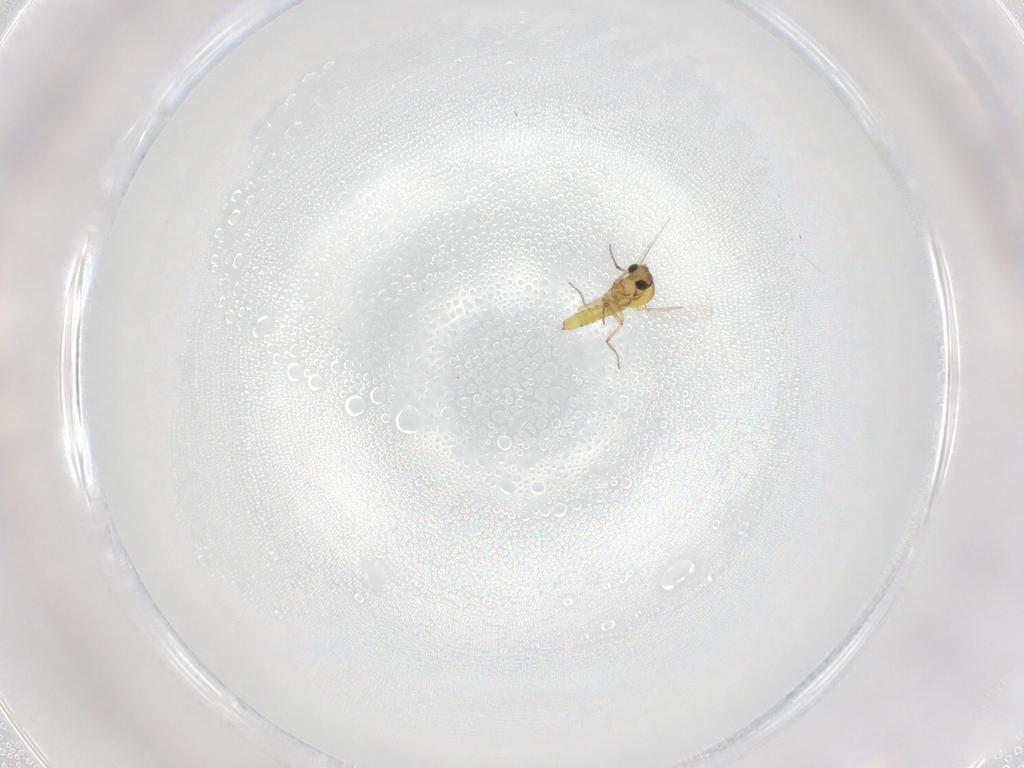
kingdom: Animalia
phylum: Arthropoda
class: Insecta
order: Diptera
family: Ceratopogonidae
